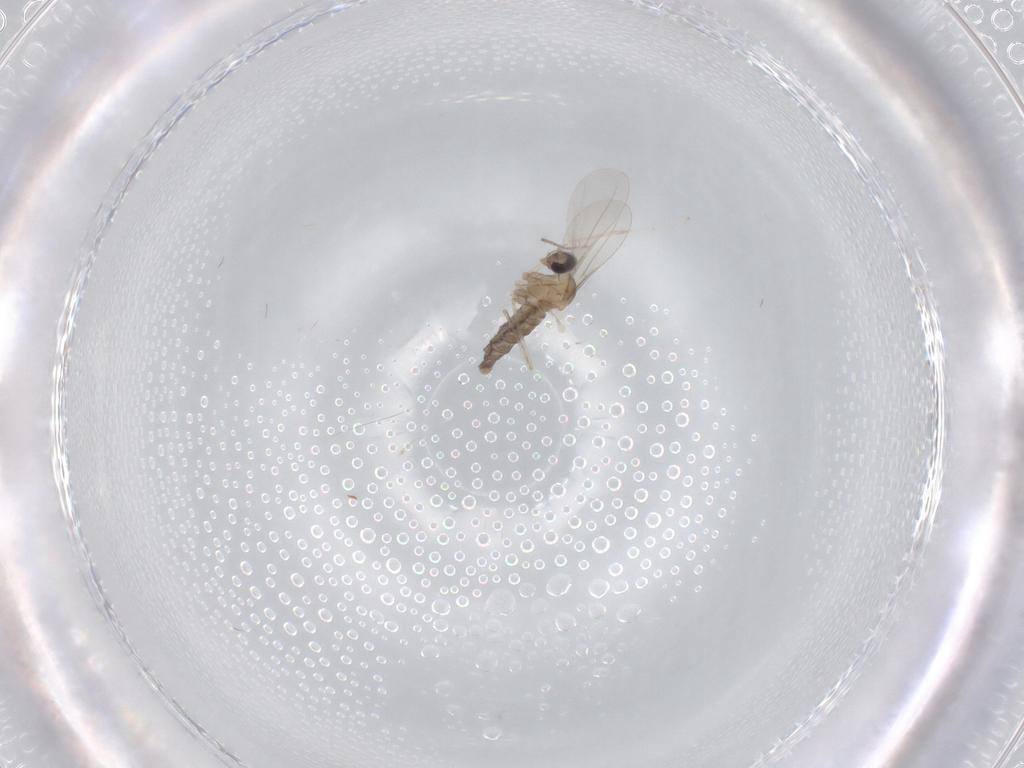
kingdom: Animalia
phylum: Arthropoda
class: Insecta
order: Diptera
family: Cecidomyiidae
